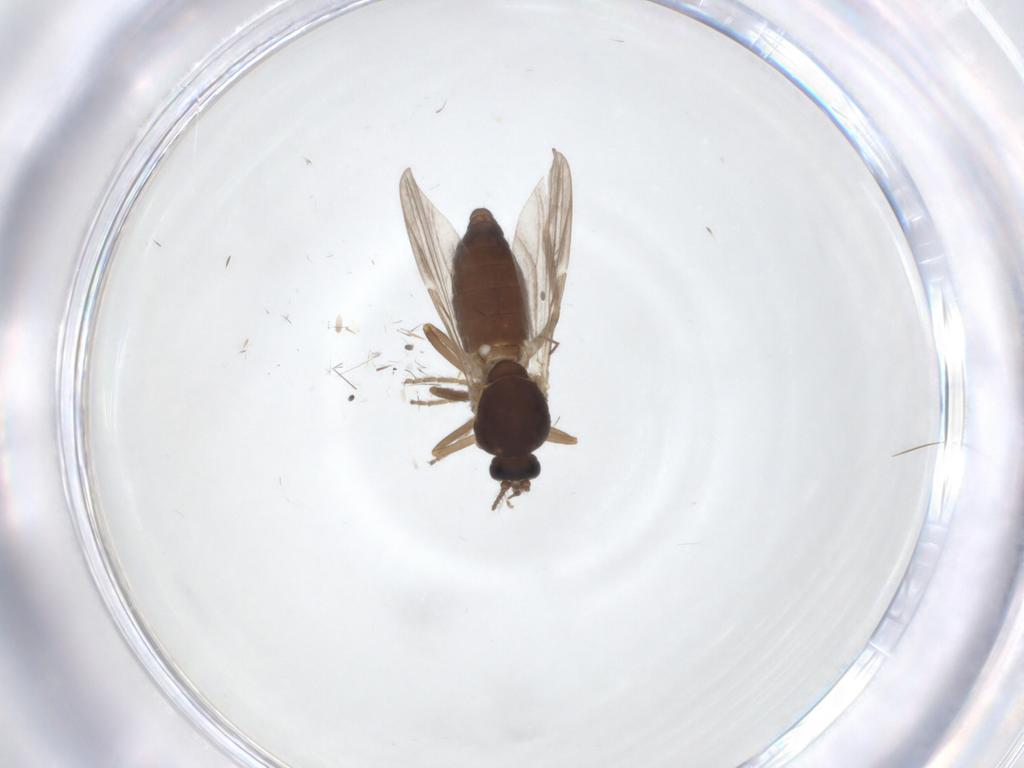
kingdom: Animalia
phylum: Arthropoda
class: Insecta
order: Diptera
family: Ceratopogonidae
